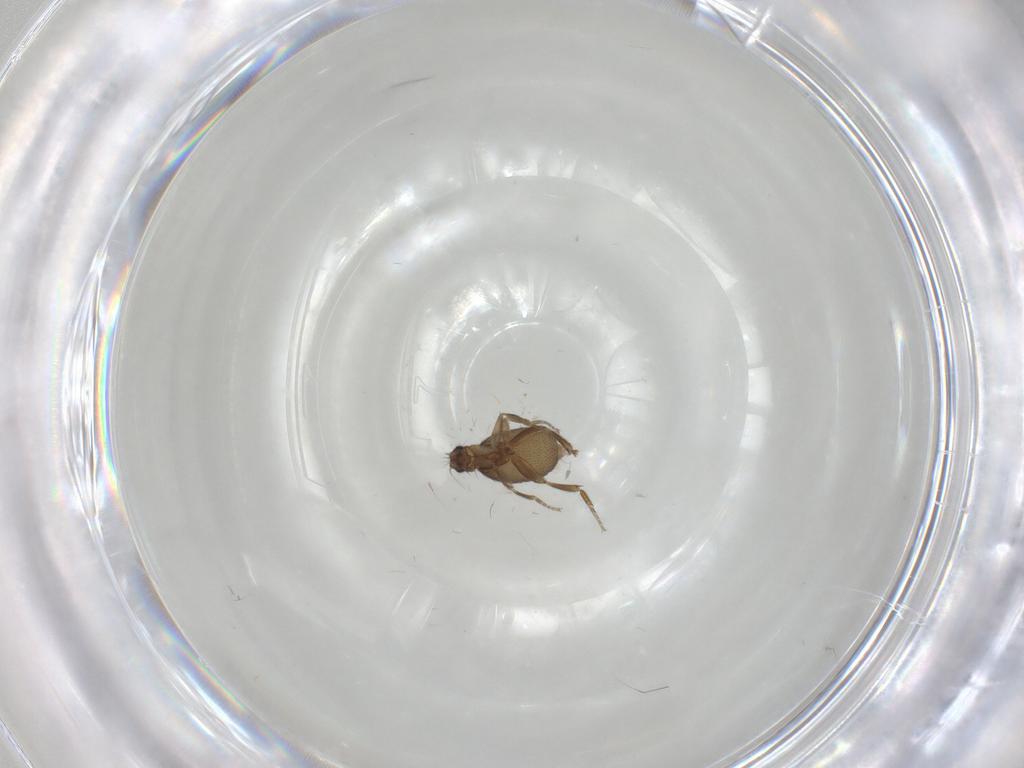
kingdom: Animalia
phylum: Arthropoda
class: Insecta
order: Diptera
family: Phoridae
